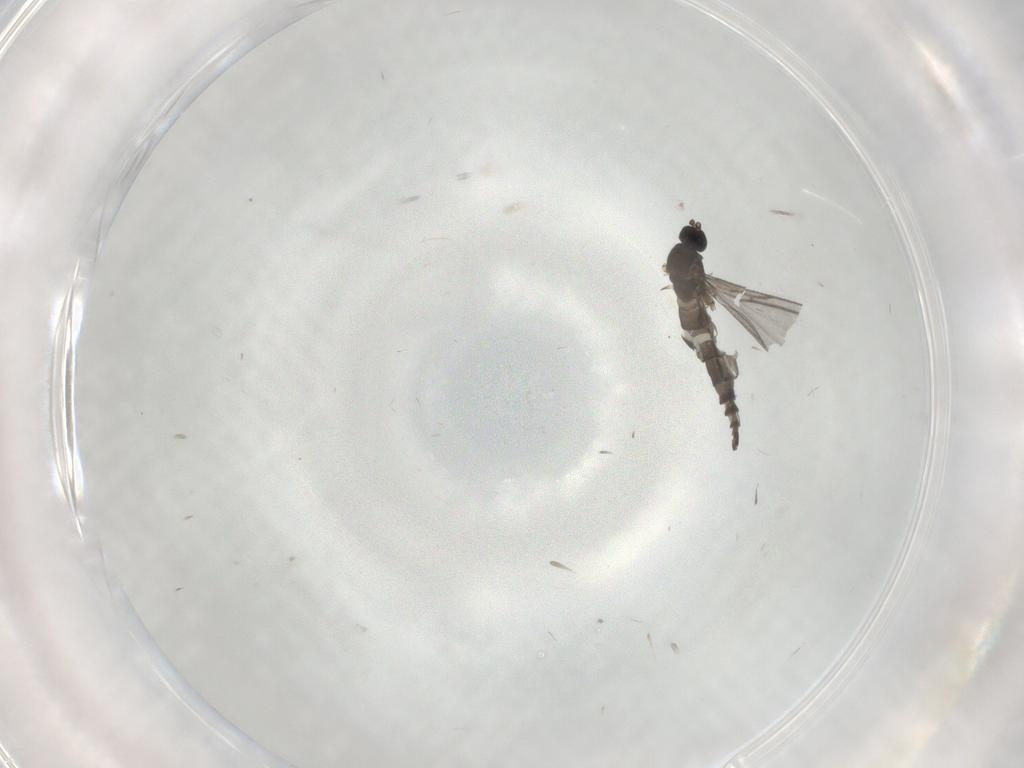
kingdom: Animalia
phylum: Arthropoda
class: Insecta
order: Diptera
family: Sciaridae
